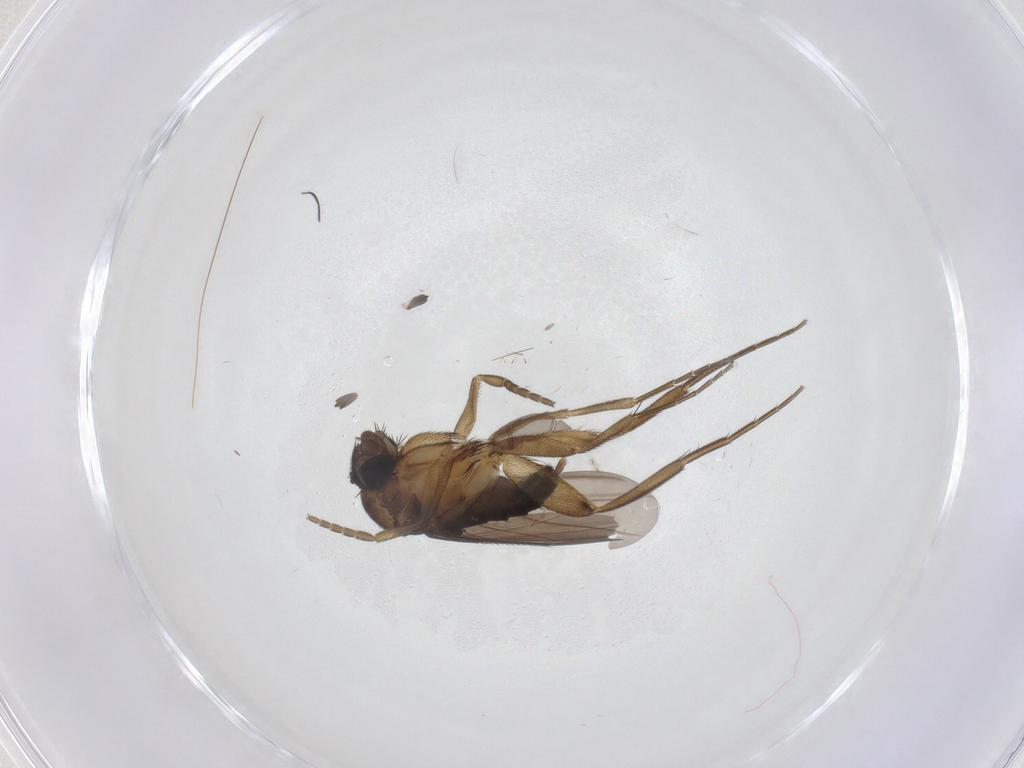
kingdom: Animalia
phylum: Arthropoda
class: Insecta
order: Diptera
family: Phoridae
